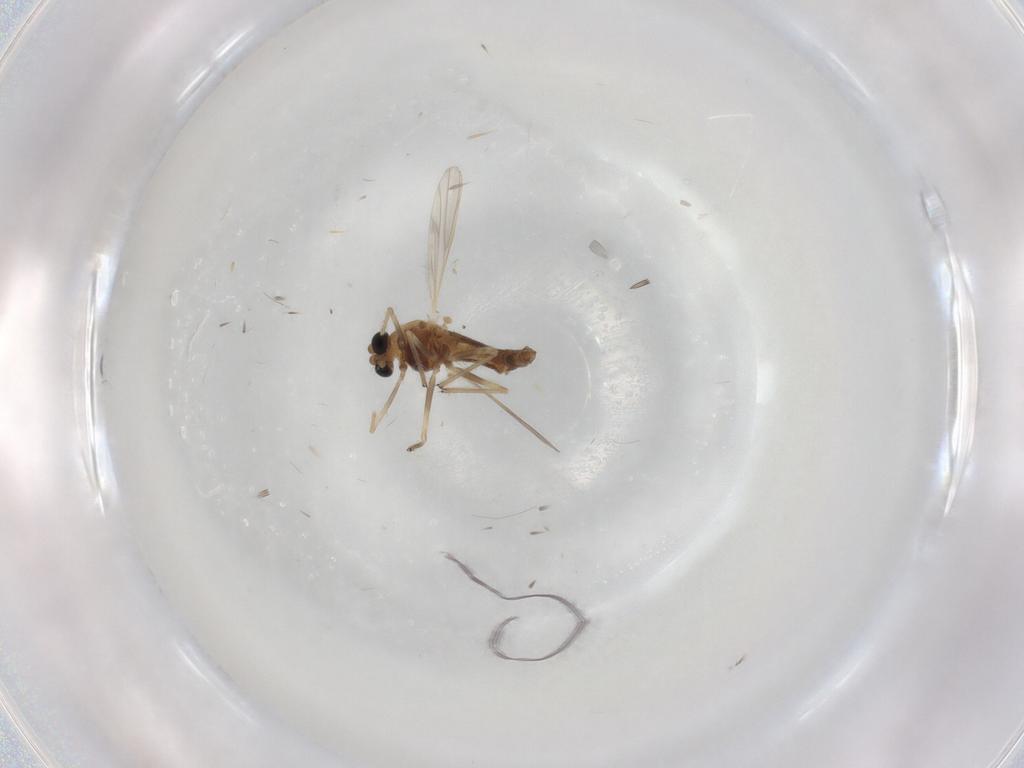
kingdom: Animalia
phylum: Arthropoda
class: Insecta
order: Diptera
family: Chironomidae
